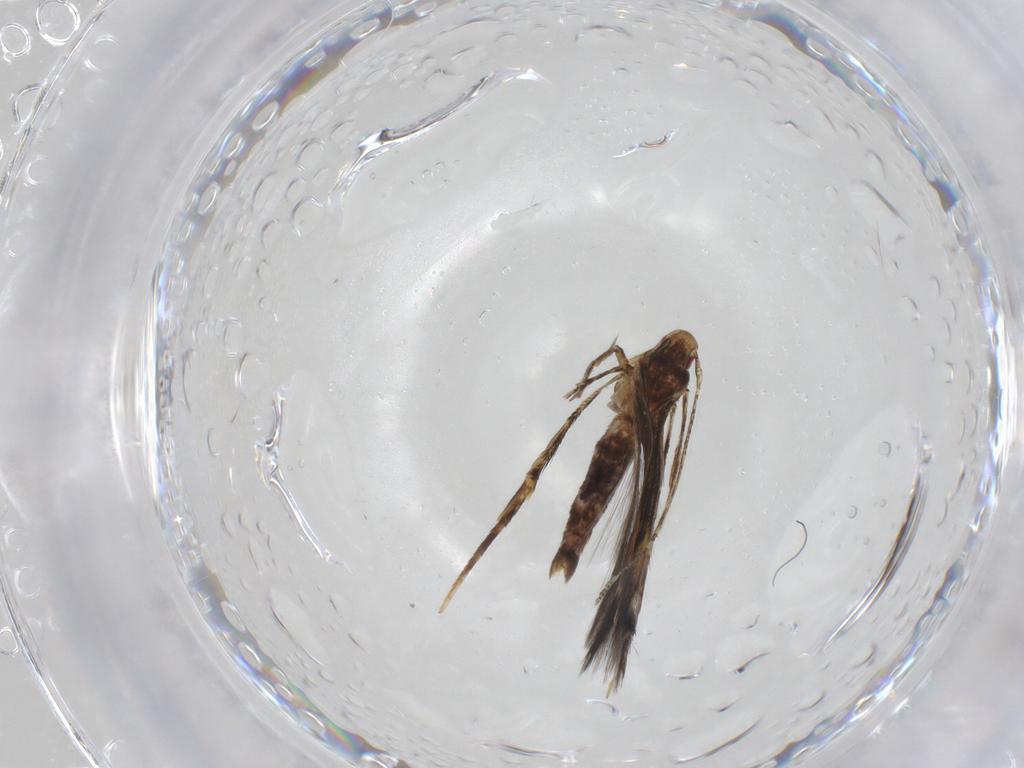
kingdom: Animalia
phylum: Arthropoda
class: Insecta
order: Lepidoptera
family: Cosmopterigidae
